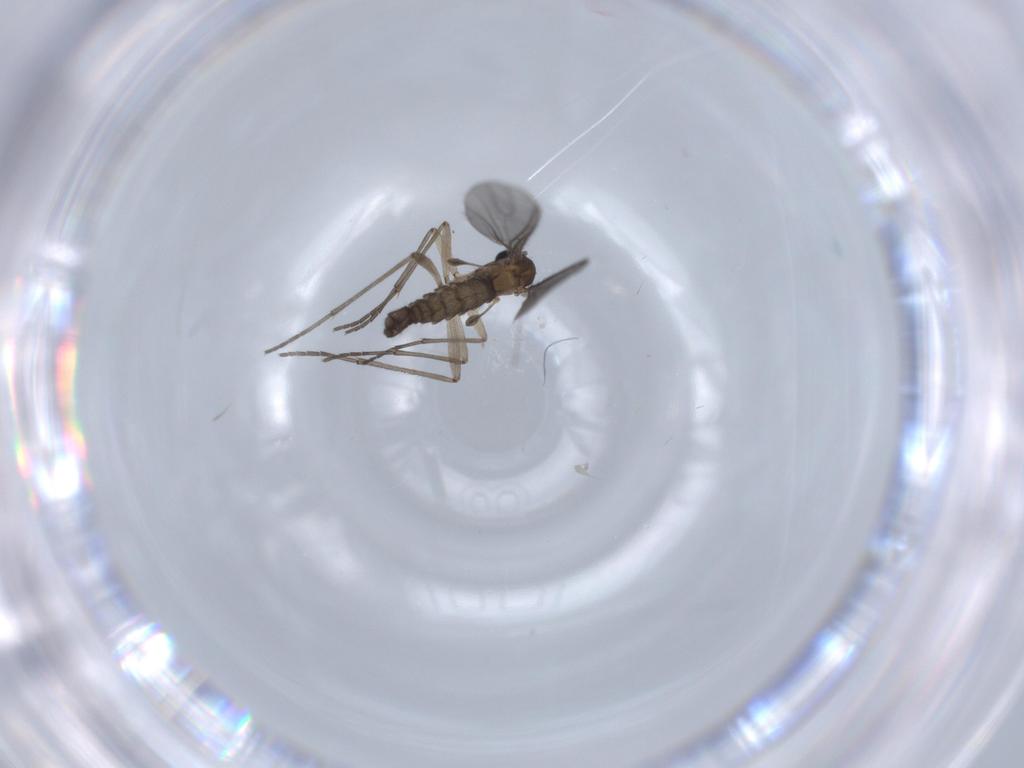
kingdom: Animalia
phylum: Arthropoda
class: Insecta
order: Diptera
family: Sciaridae
